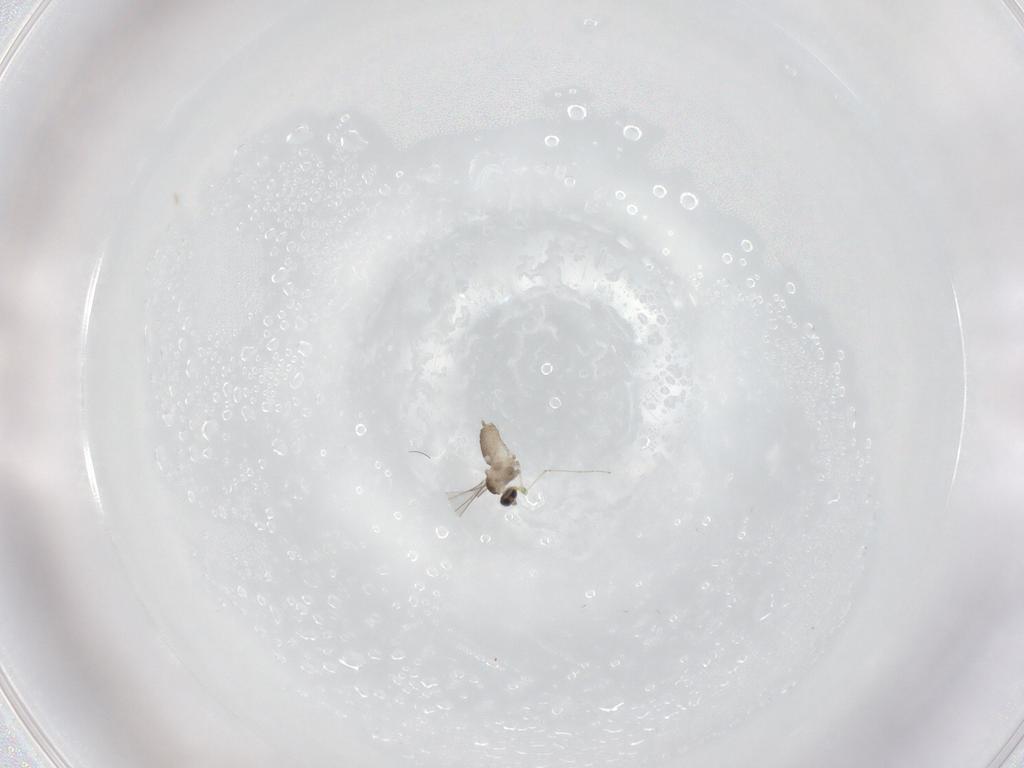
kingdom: Animalia
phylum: Arthropoda
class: Insecta
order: Diptera
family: Cecidomyiidae
